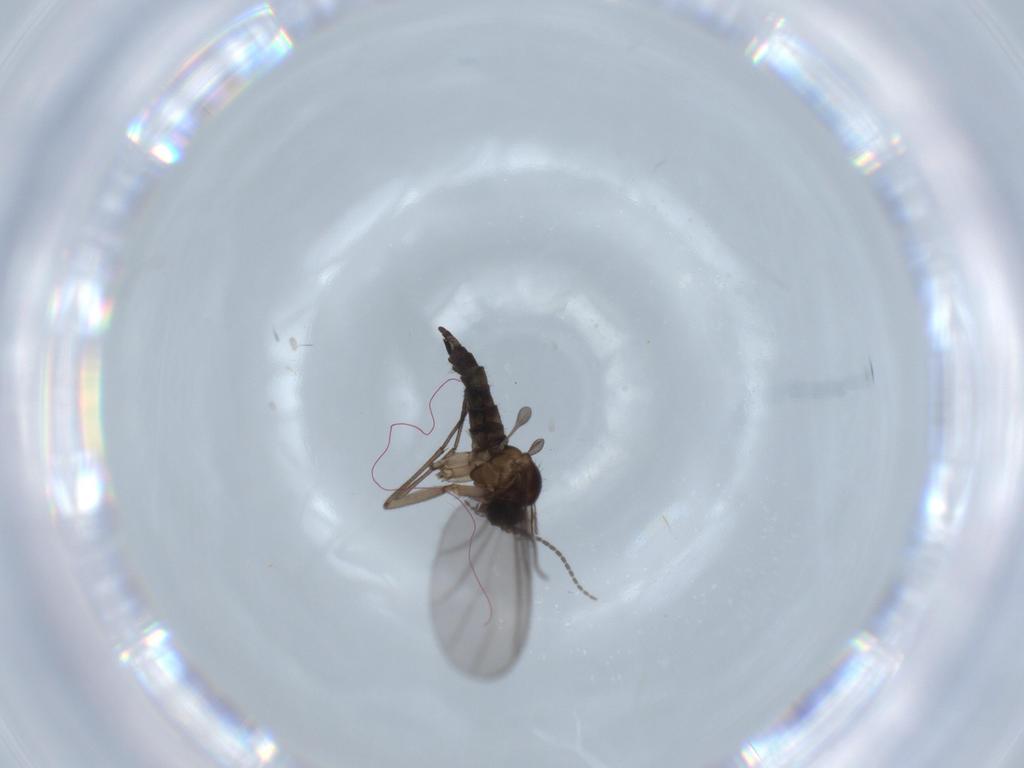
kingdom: Animalia
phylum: Arthropoda
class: Insecta
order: Diptera
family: Sciaridae
